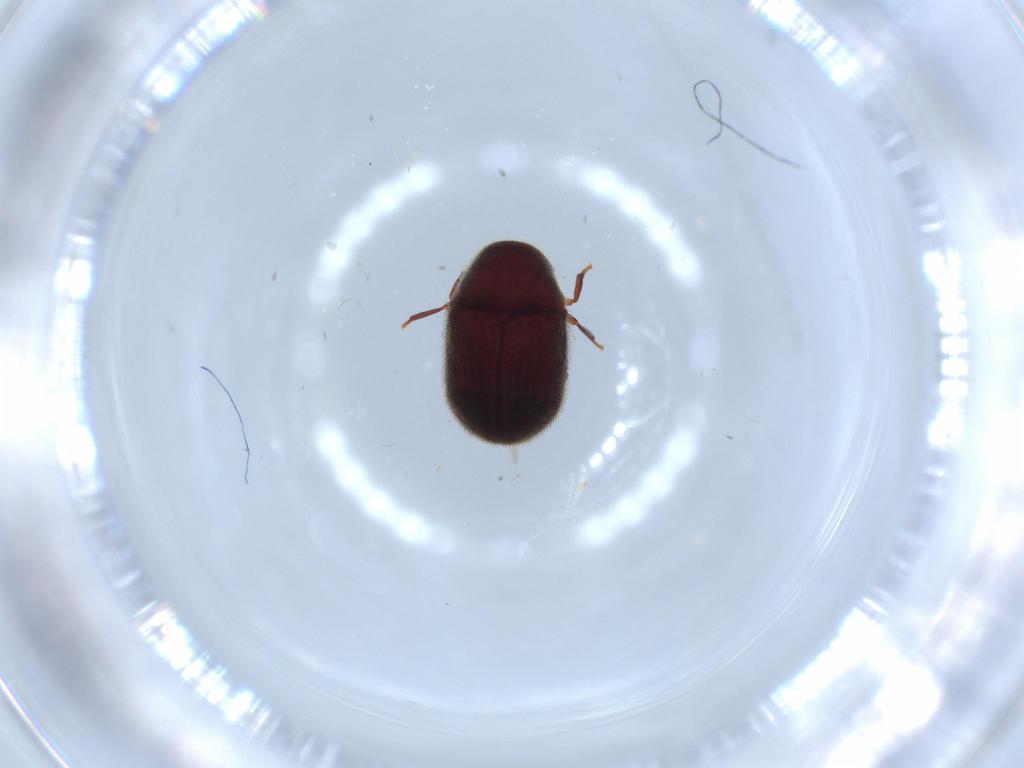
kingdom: Animalia
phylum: Arthropoda
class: Insecta
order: Coleoptera
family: Ptinidae
